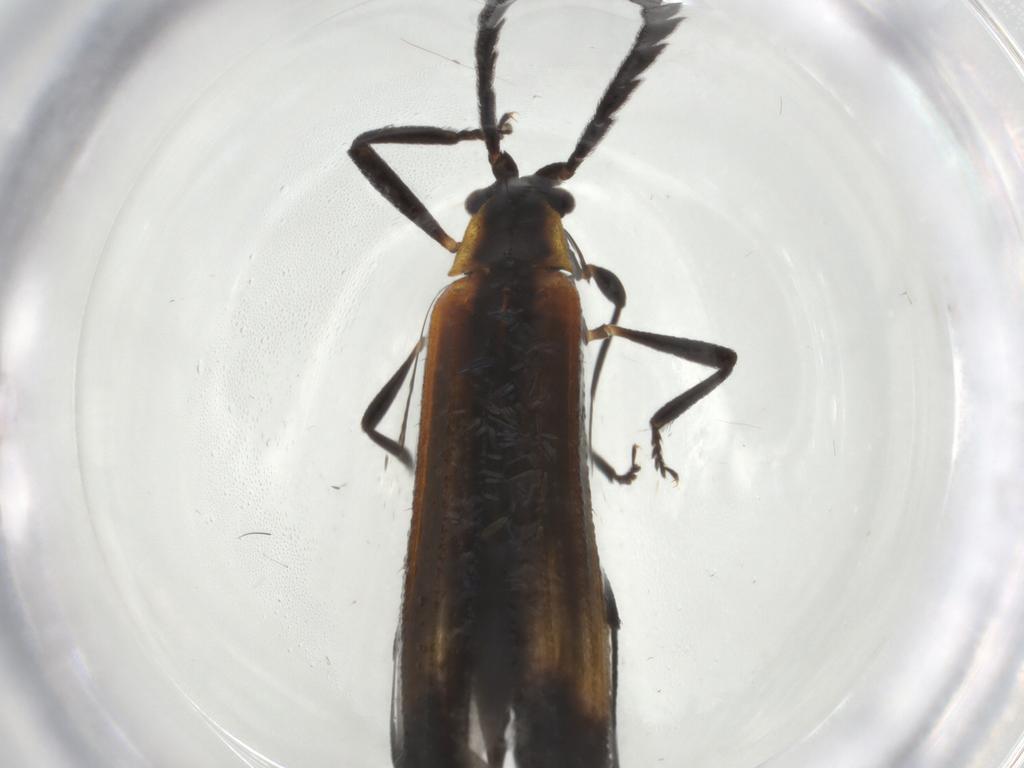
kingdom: Animalia
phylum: Arthropoda
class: Insecta
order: Coleoptera
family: Lycidae
